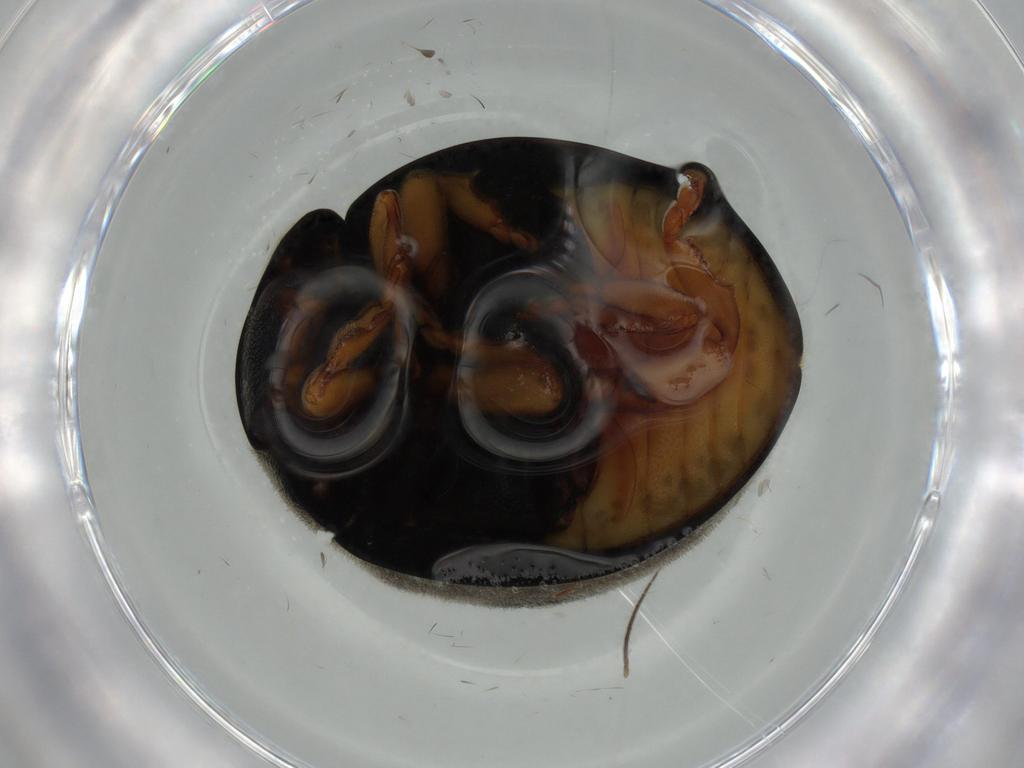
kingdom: Animalia
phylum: Arthropoda
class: Insecta
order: Coleoptera
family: Coccinellidae
